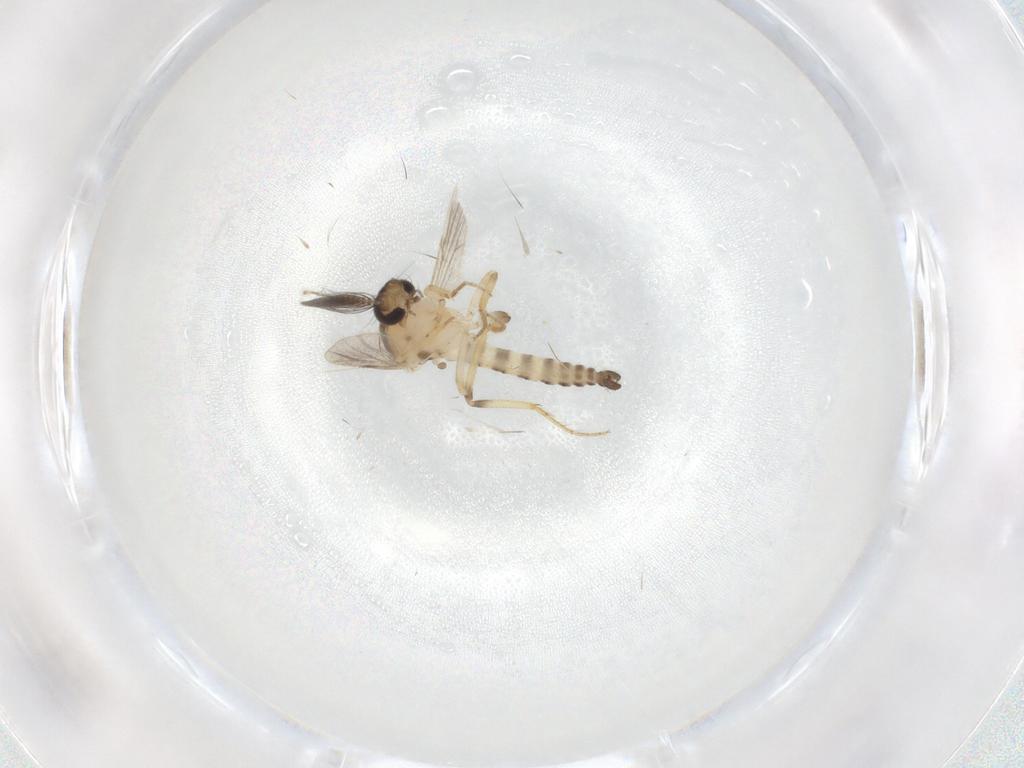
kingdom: Animalia
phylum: Arthropoda
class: Insecta
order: Diptera
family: Ceratopogonidae
